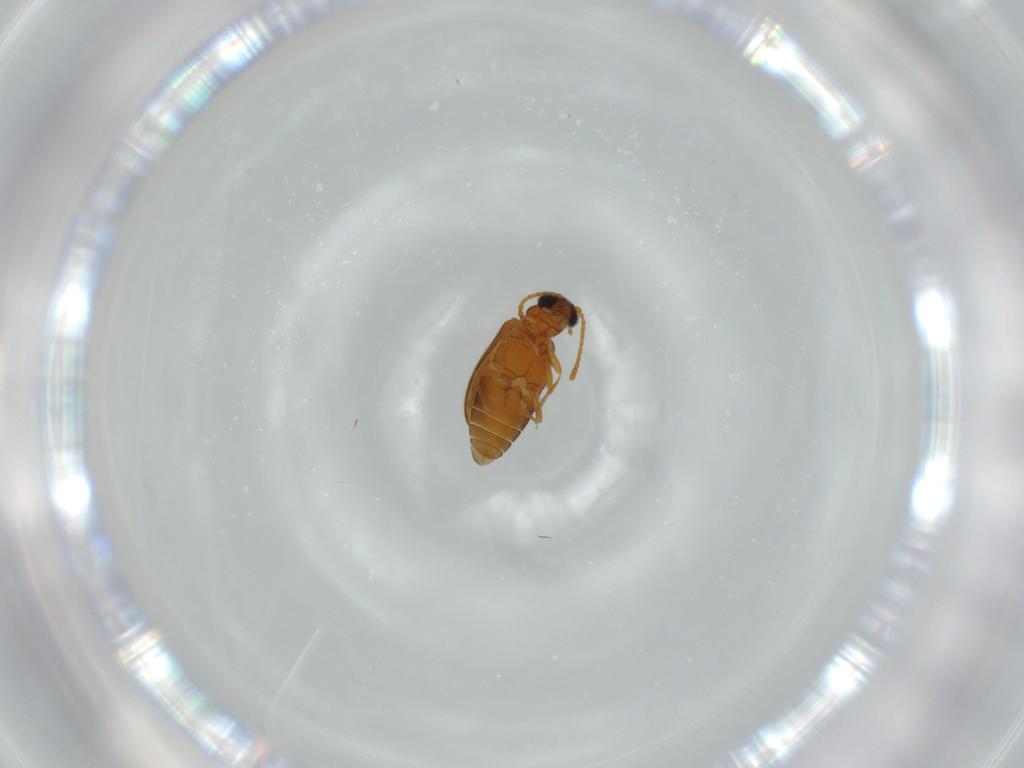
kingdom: Animalia
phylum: Arthropoda
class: Insecta
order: Coleoptera
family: Aderidae
